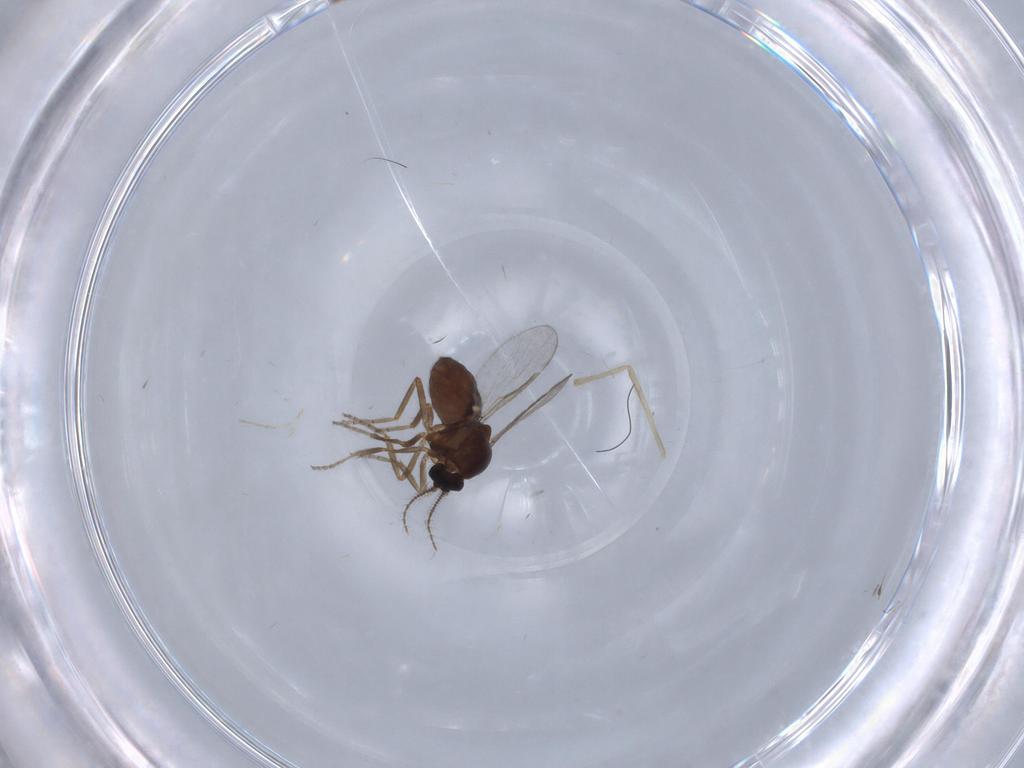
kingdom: Animalia
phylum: Arthropoda
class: Insecta
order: Diptera
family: Ceratopogonidae
